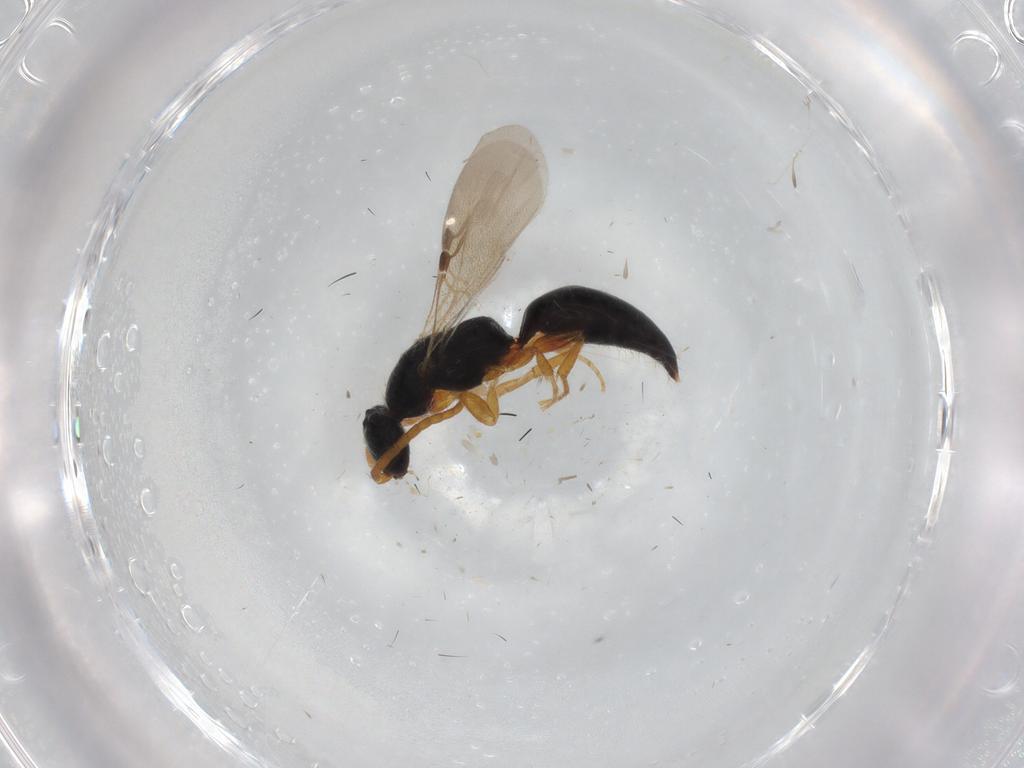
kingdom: Animalia
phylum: Arthropoda
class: Insecta
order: Hymenoptera
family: Bethylidae
